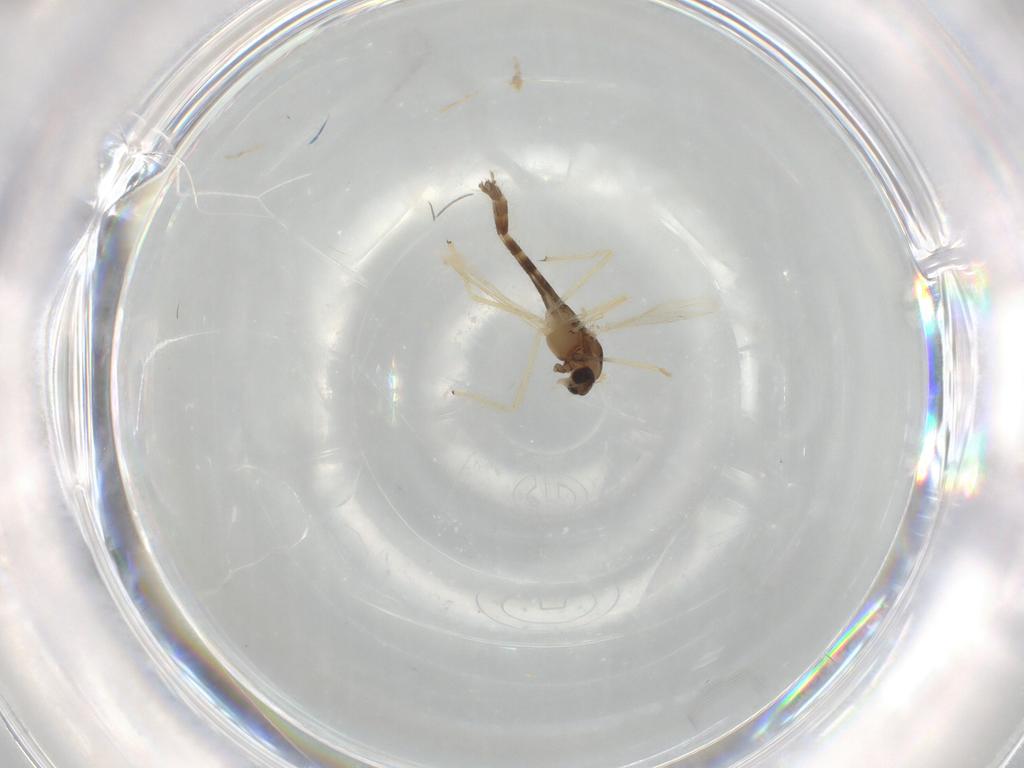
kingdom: Animalia
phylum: Arthropoda
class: Insecta
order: Diptera
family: Chironomidae
